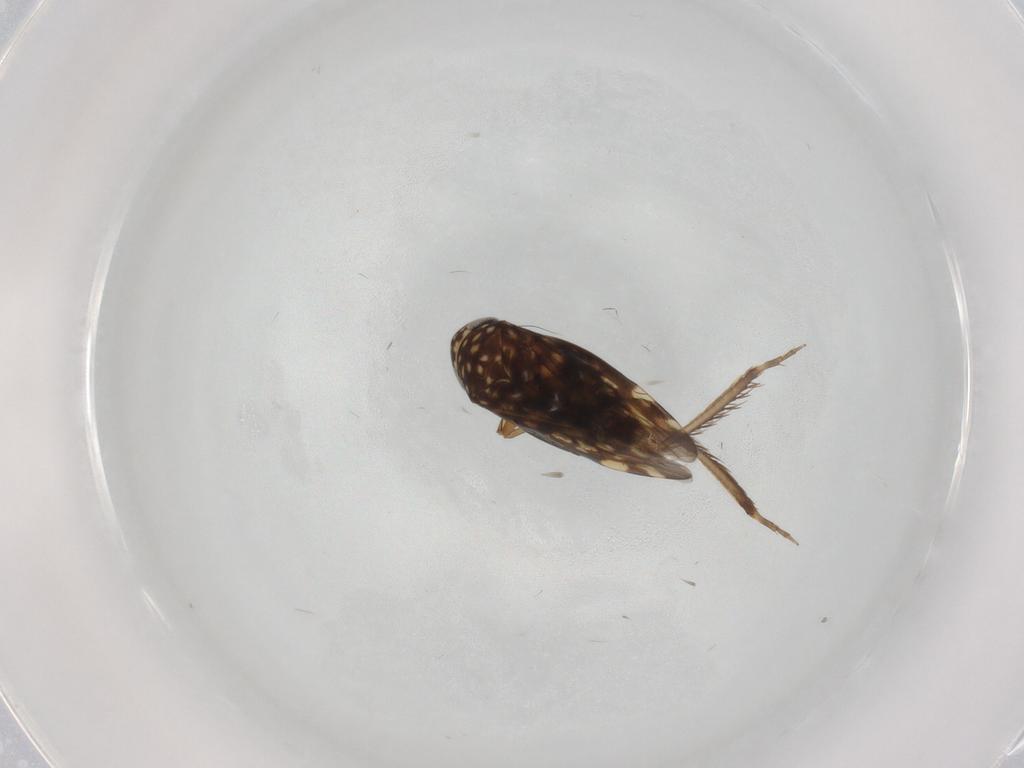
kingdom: Animalia
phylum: Arthropoda
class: Insecta
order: Hemiptera
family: Cicadellidae
